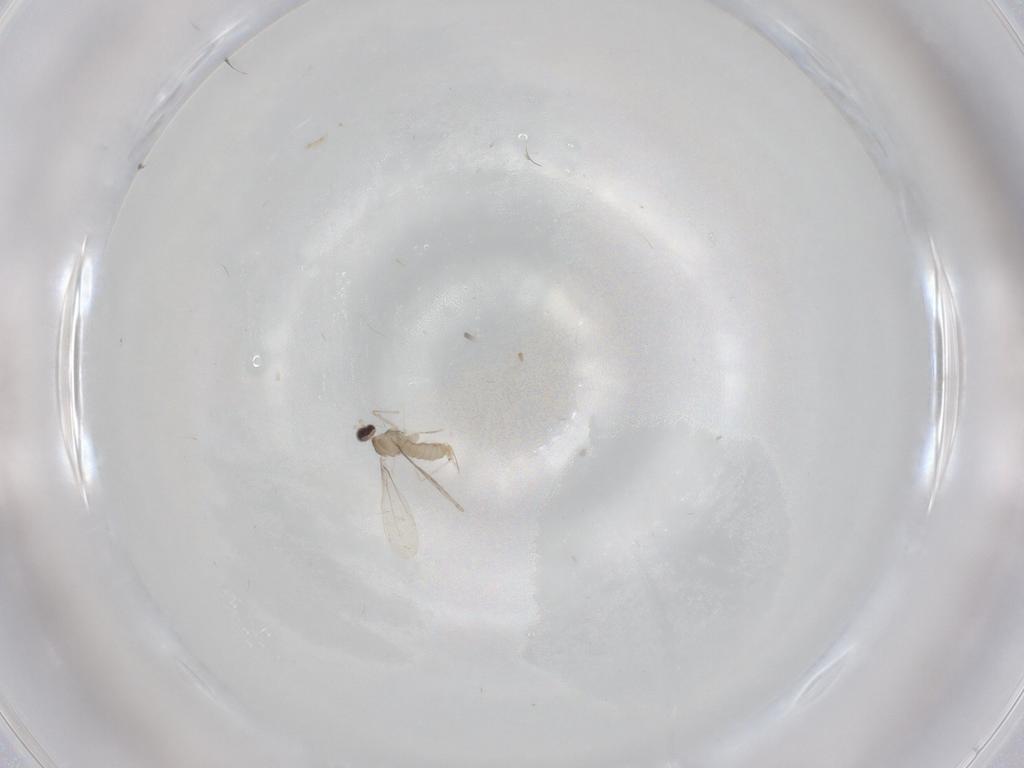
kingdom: Animalia
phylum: Arthropoda
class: Insecta
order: Diptera
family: Cecidomyiidae
